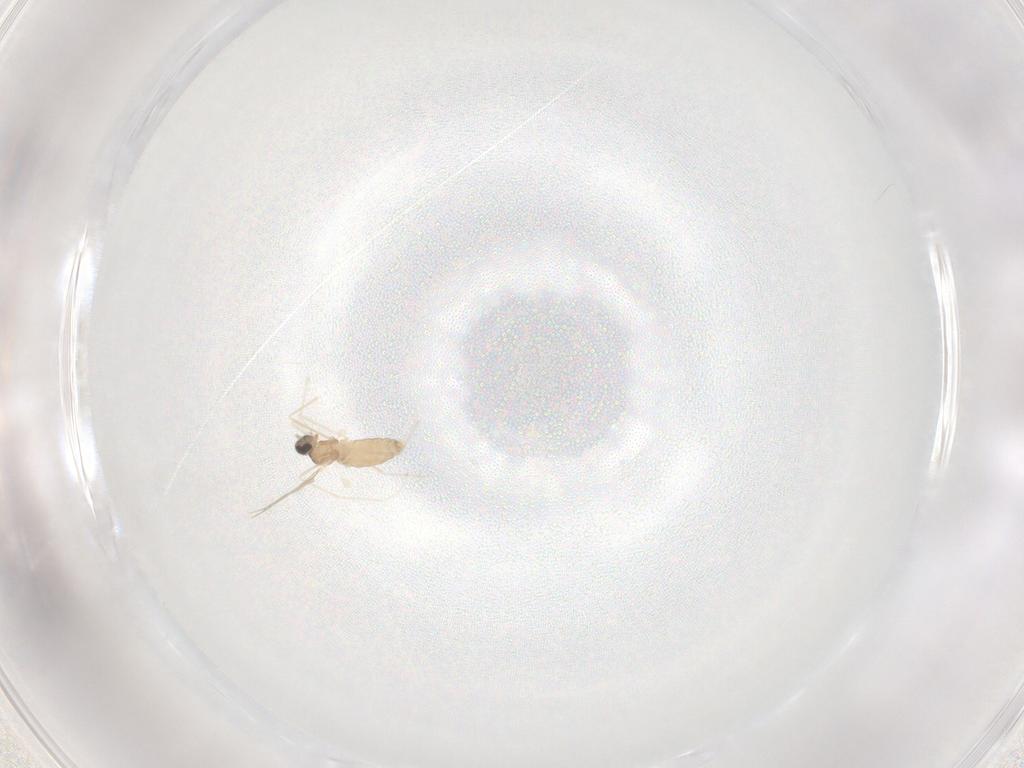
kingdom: Animalia
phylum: Arthropoda
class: Insecta
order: Diptera
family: Cecidomyiidae
